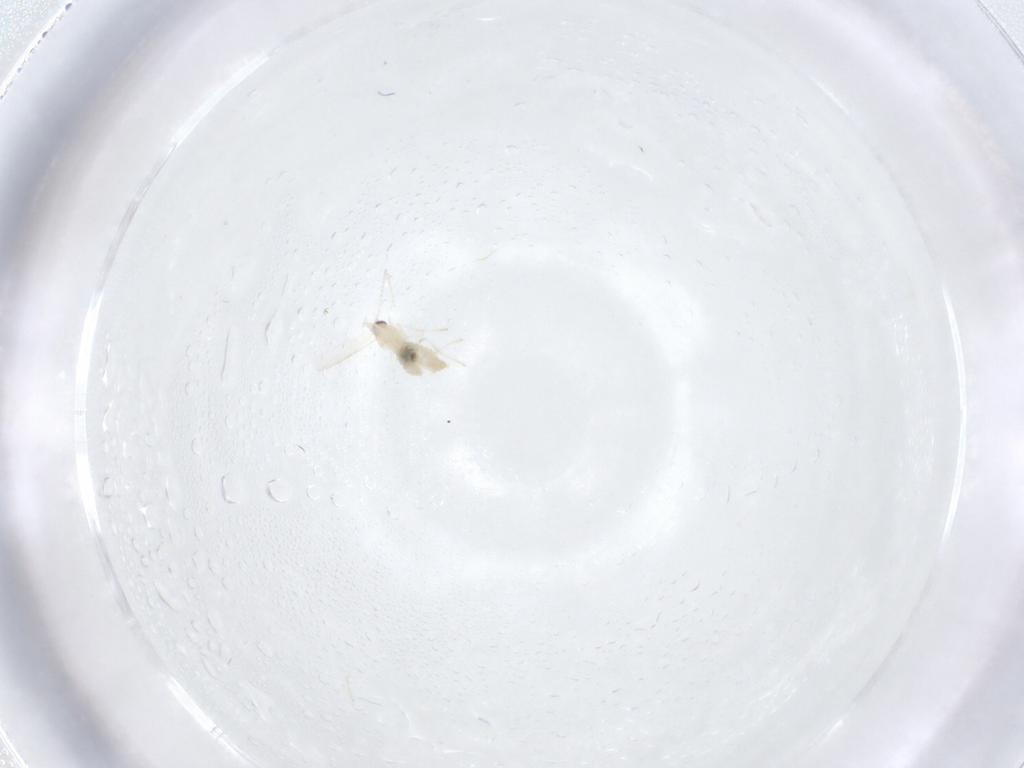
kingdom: Animalia
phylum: Arthropoda
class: Insecta
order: Diptera
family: Cecidomyiidae
